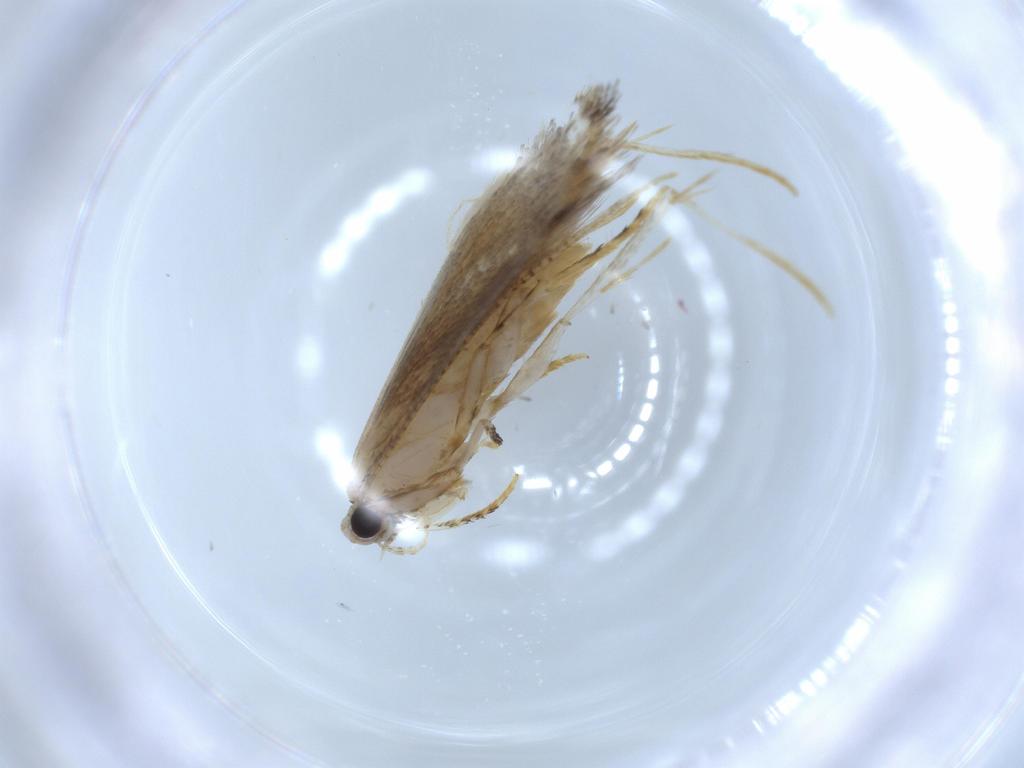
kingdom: Animalia
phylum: Arthropoda
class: Insecta
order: Lepidoptera
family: Tineidae
